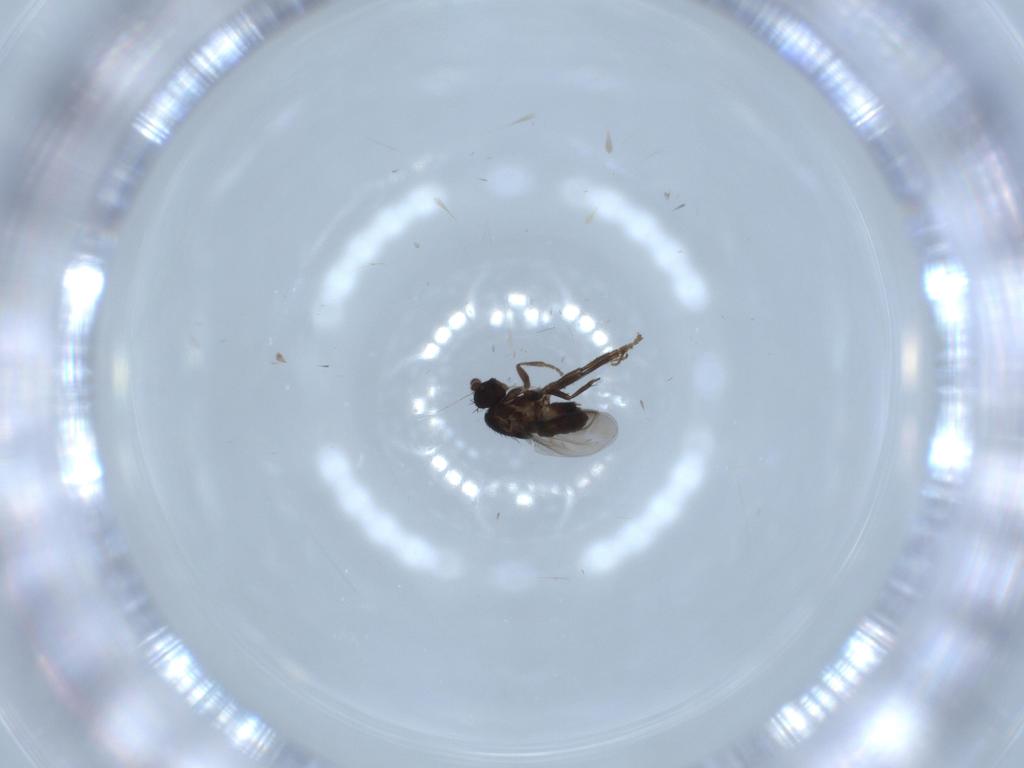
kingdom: Animalia
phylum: Arthropoda
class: Insecta
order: Diptera
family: Sphaeroceridae
